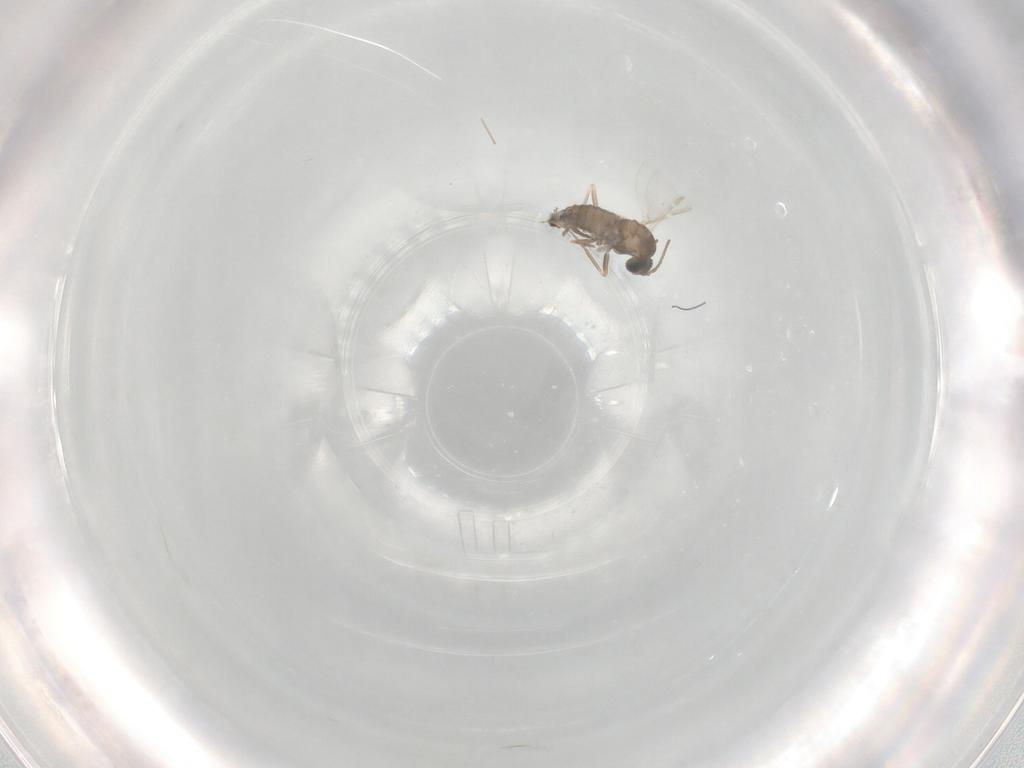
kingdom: Animalia
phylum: Arthropoda
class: Insecta
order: Diptera
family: Cecidomyiidae
